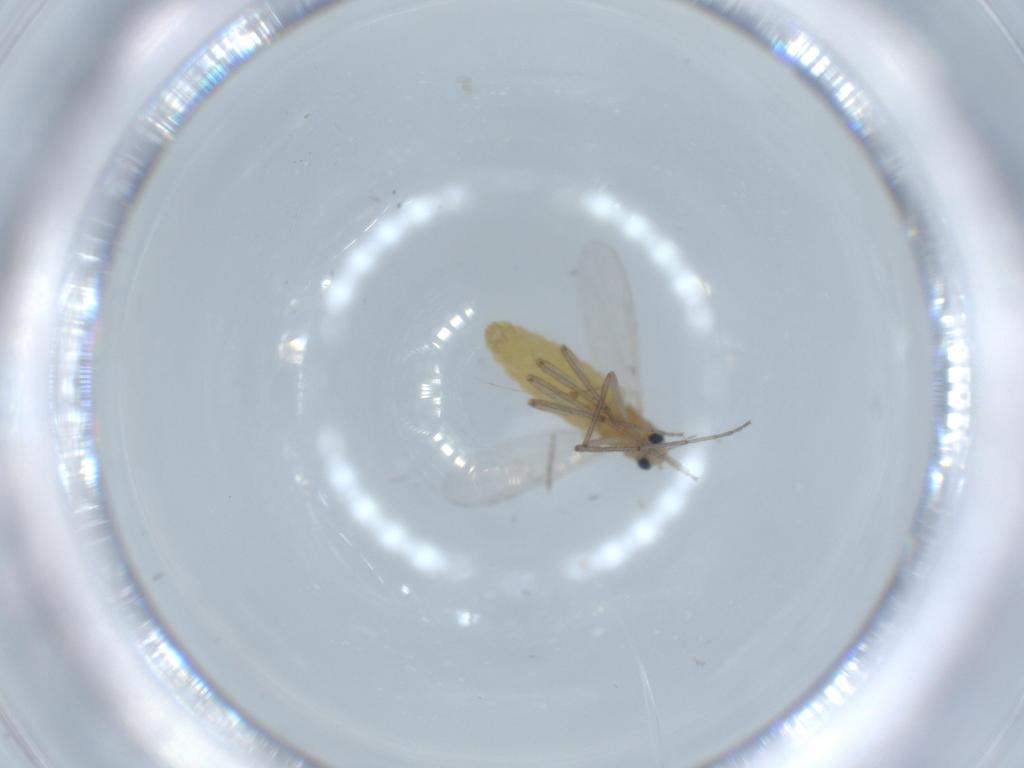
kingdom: Animalia
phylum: Arthropoda
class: Insecta
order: Diptera
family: Chironomidae
